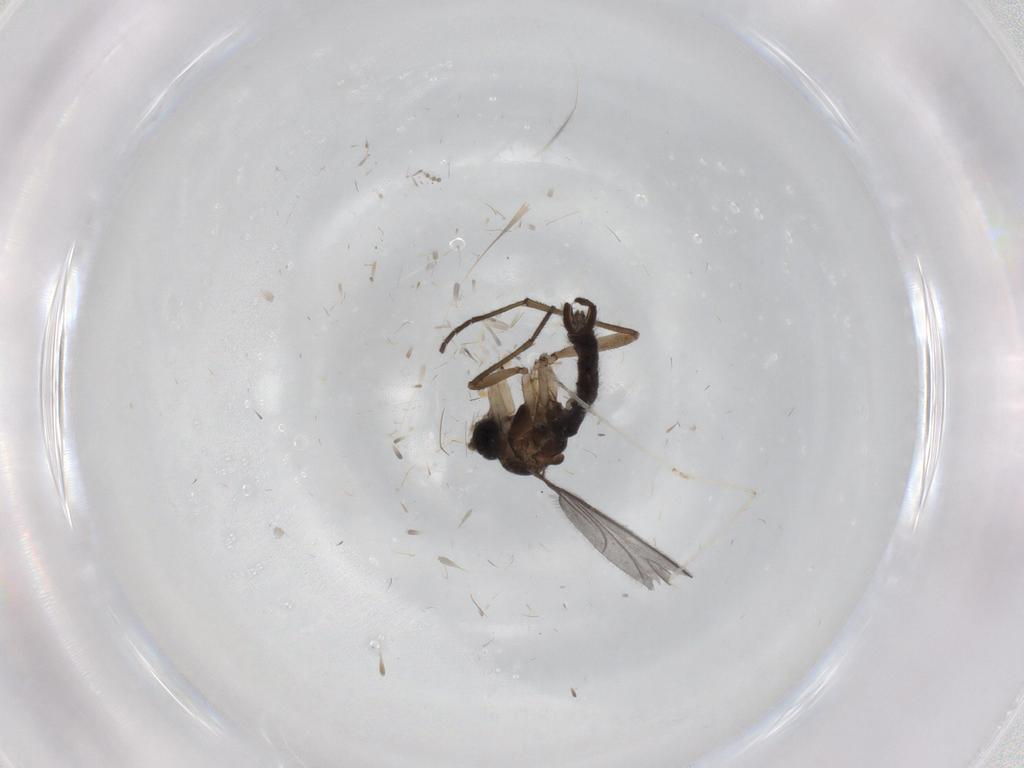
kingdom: Animalia
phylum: Arthropoda
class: Insecta
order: Diptera
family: Sciaridae
